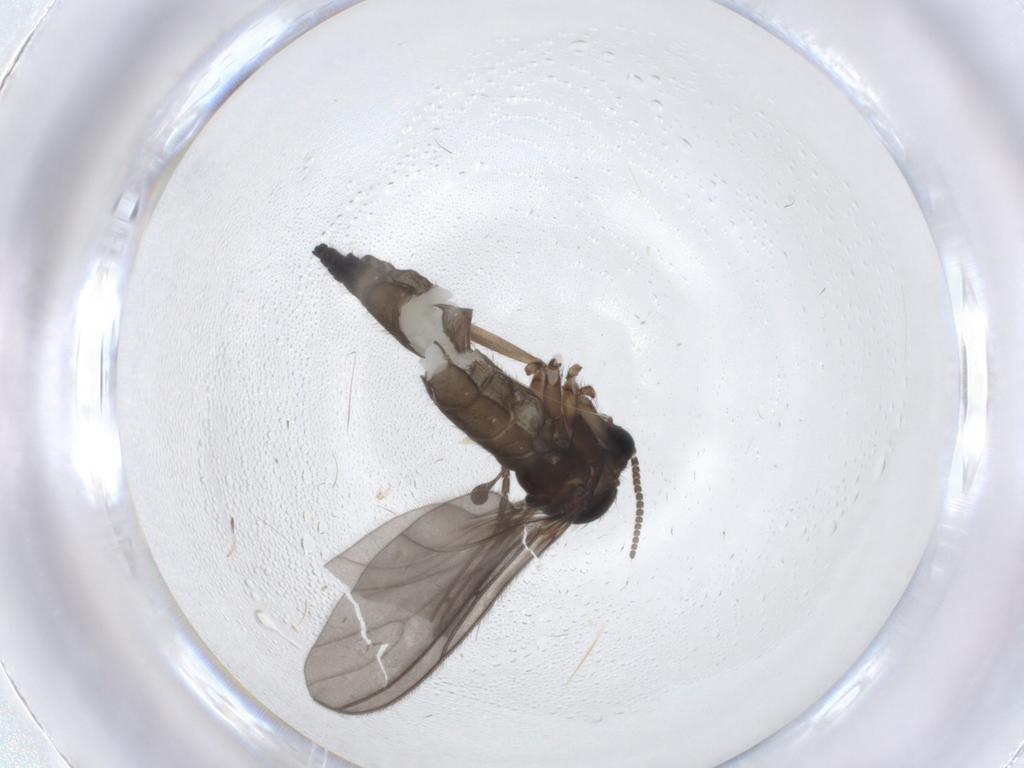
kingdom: Animalia
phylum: Arthropoda
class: Insecta
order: Diptera
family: Sciaridae
